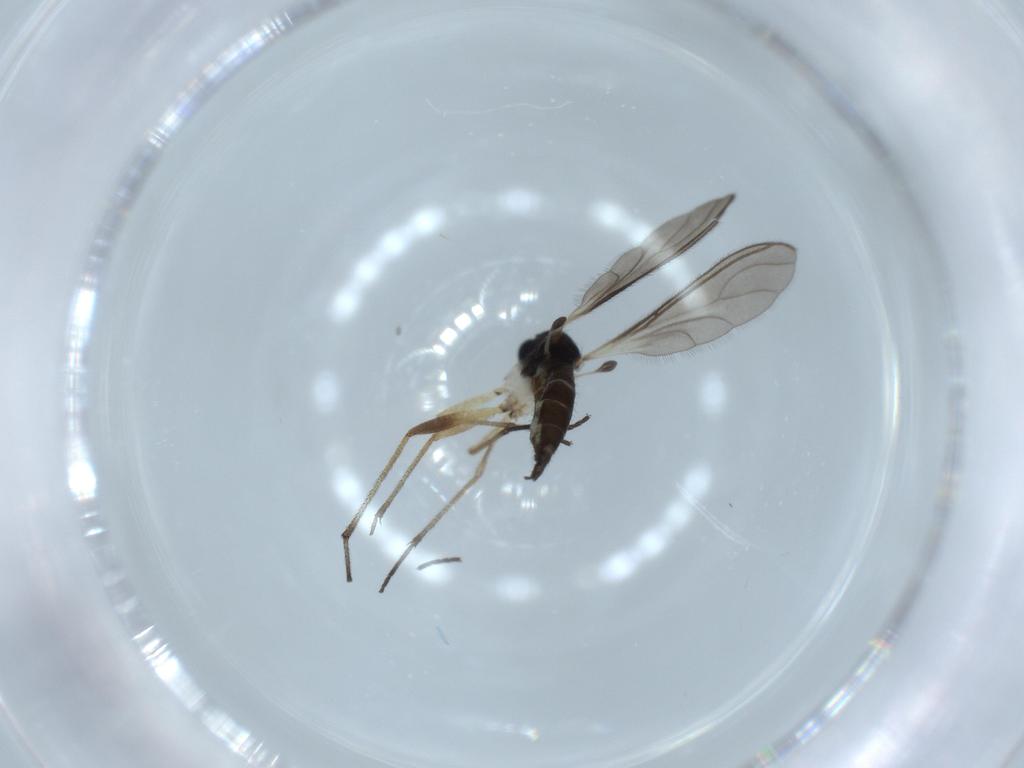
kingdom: Animalia
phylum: Arthropoda
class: Insecta
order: Diptera
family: Sciaridae
